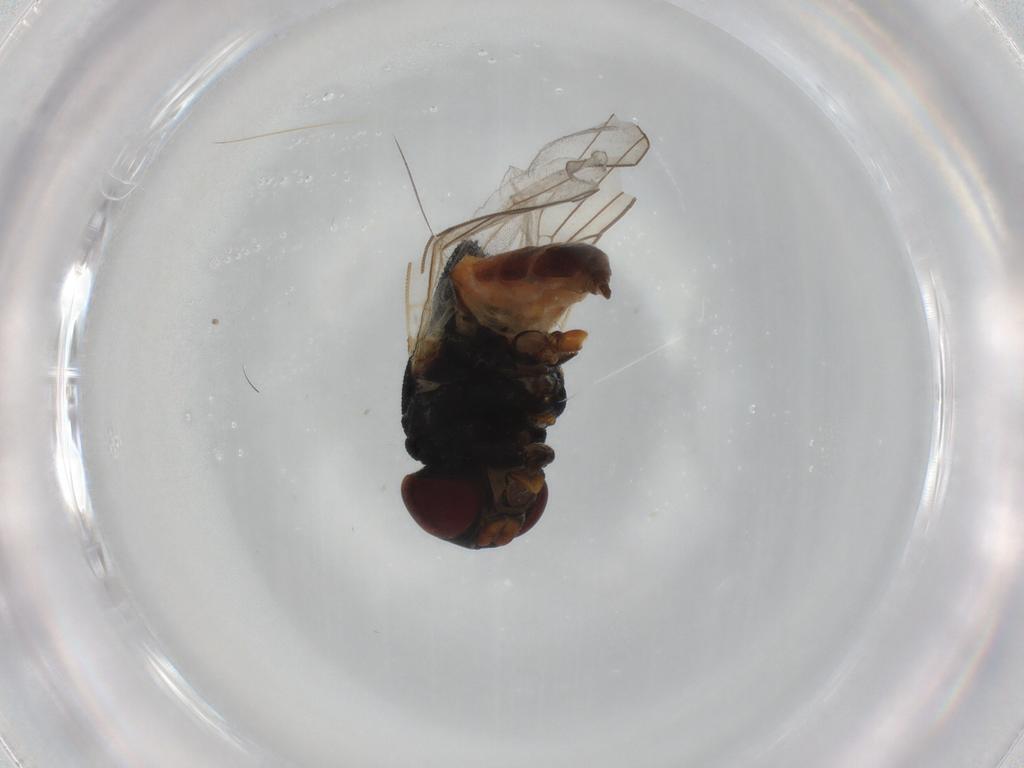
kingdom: Animalia
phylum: Arthropoda
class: Insecta
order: Diptera
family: Chloropidae
